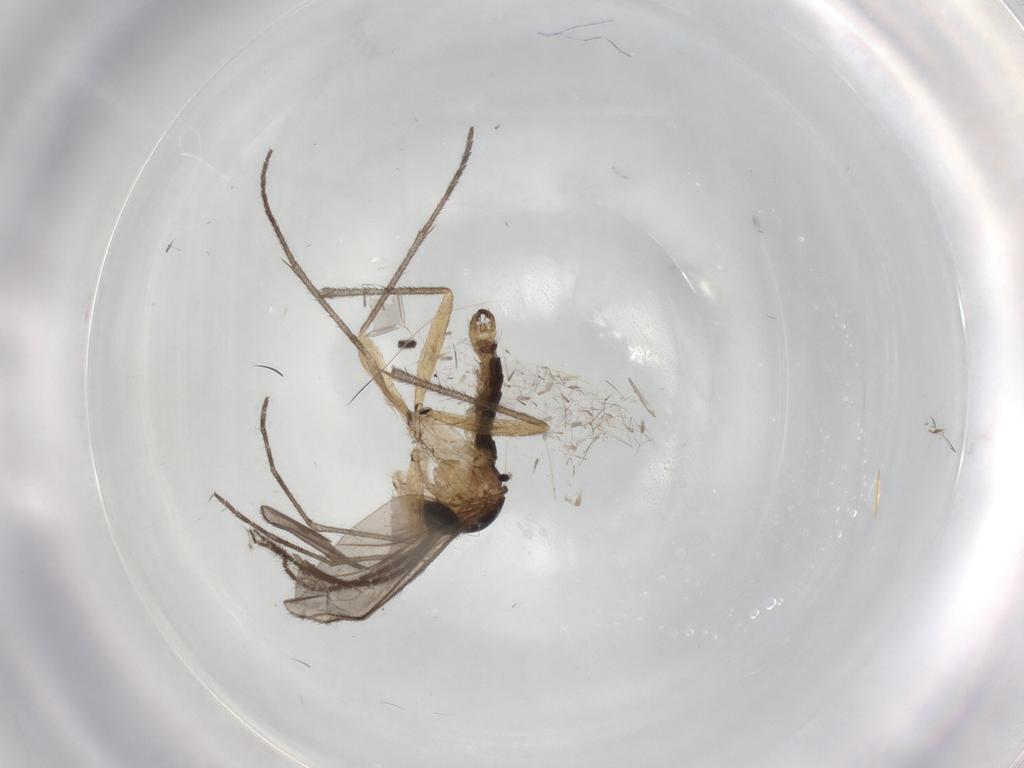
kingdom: Animalia
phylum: Arthropoda
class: Insecta
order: Diptera
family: Sciaridae
